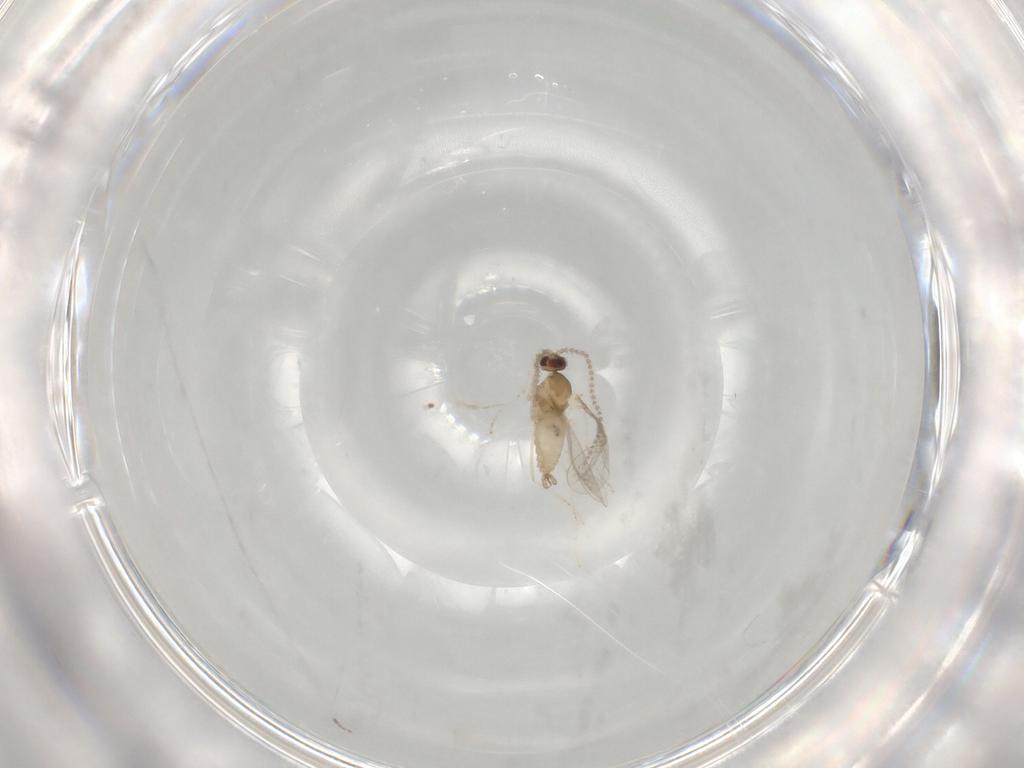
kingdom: Animalia
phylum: Arthropoda
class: Insecta
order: Diptera
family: Cecidomyiidae
